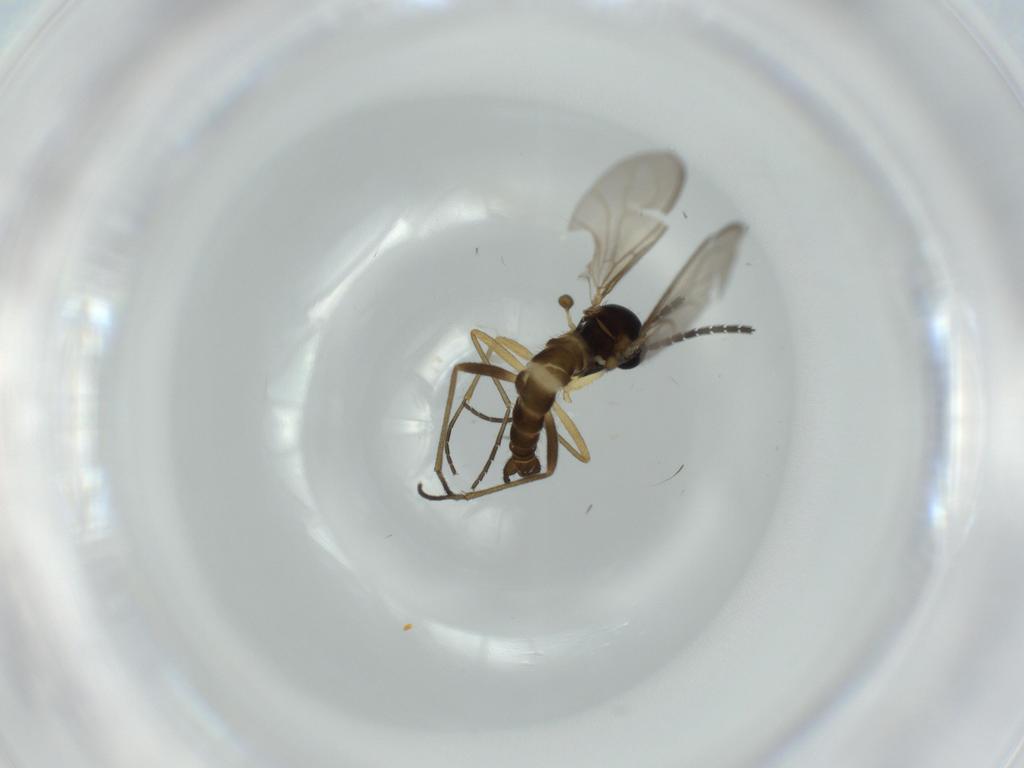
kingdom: Animalia
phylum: Arthropoda
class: Insecta
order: Diptera
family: Sciaridae
